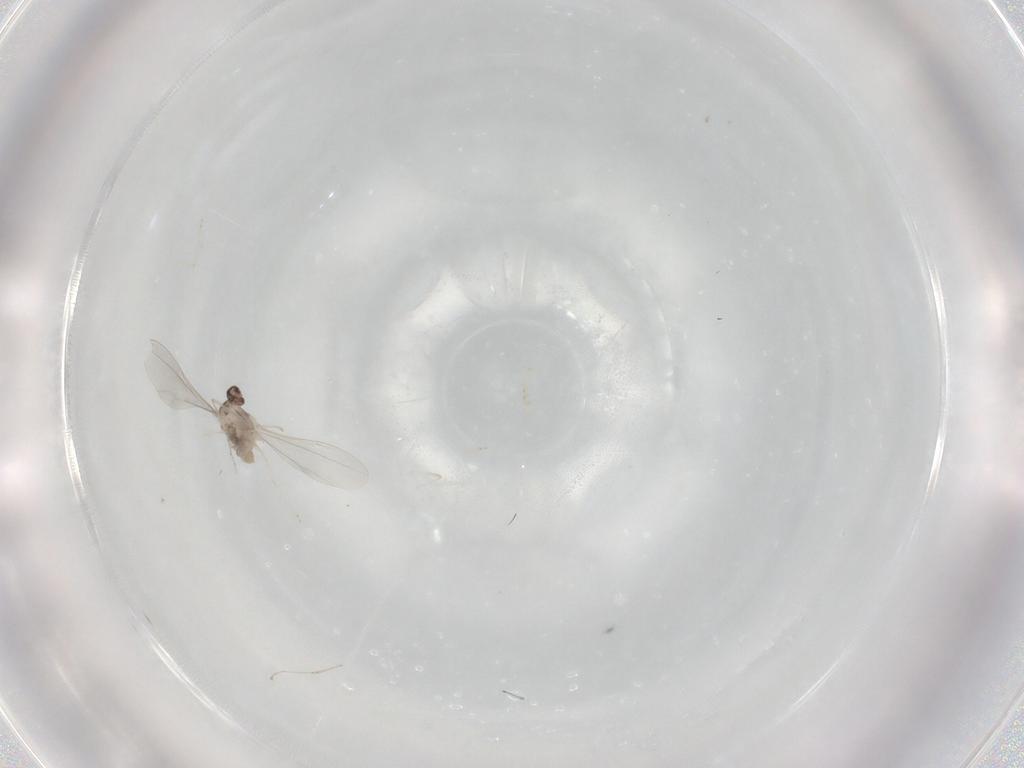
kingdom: Animalia
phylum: Arthropoda
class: Insecta
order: Diptera
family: Cecidomyiidae
